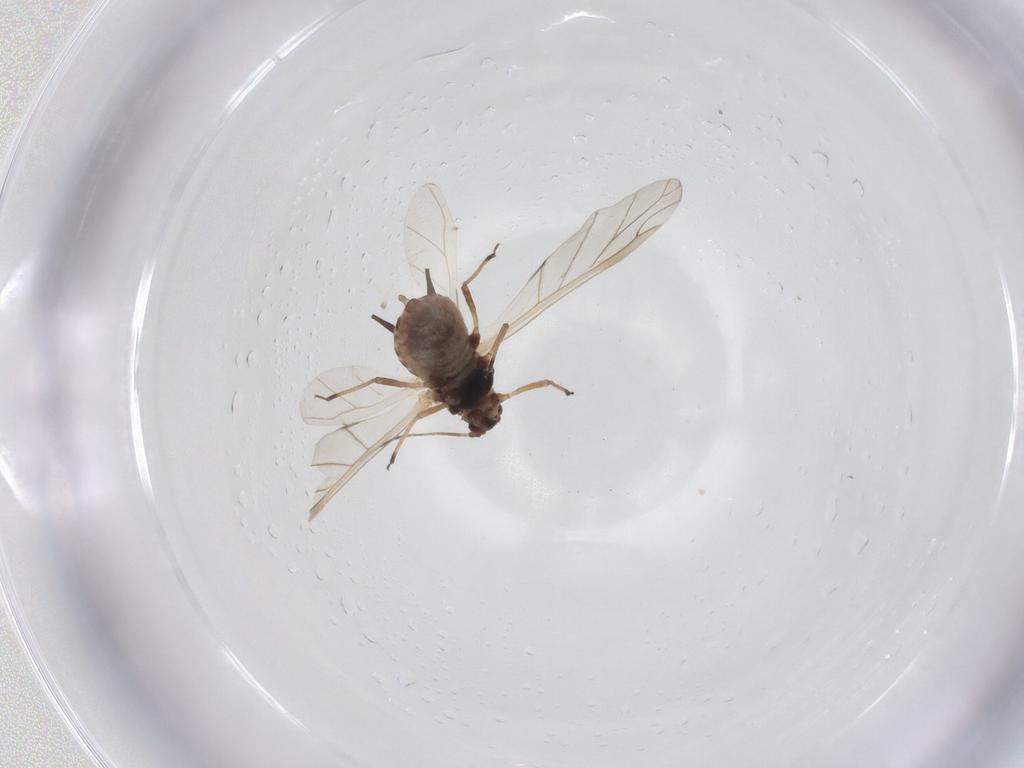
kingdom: Animalia
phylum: Arthropoda
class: Insecta
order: Hemiptera
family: Aphididae
